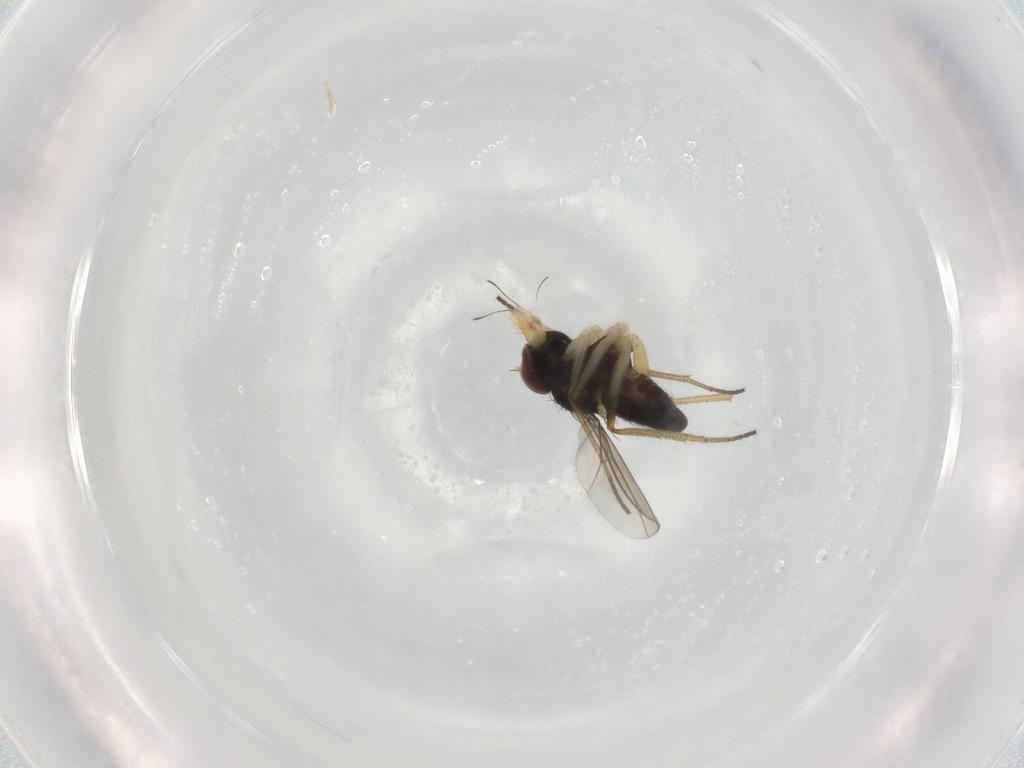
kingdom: Animalia
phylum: Arthropoda
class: Insecta
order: Diptera
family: Dolichopodidae
